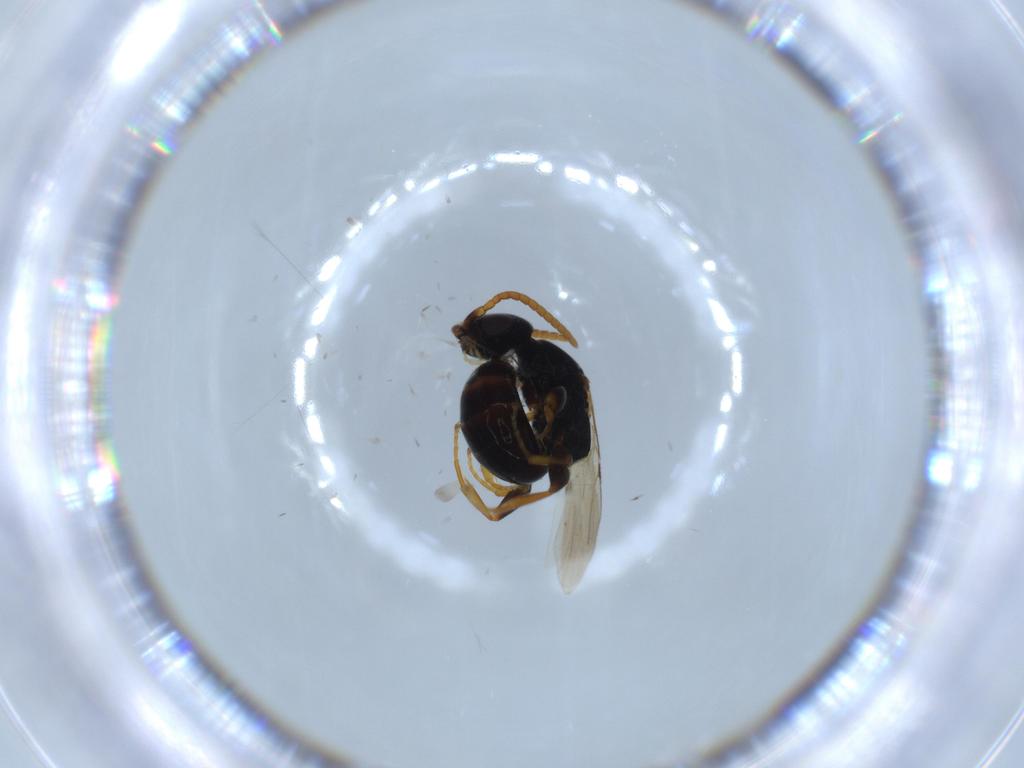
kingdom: Animalia
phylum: Arthropoda
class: Insecta
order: Hymenoptera
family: Bethylidae
